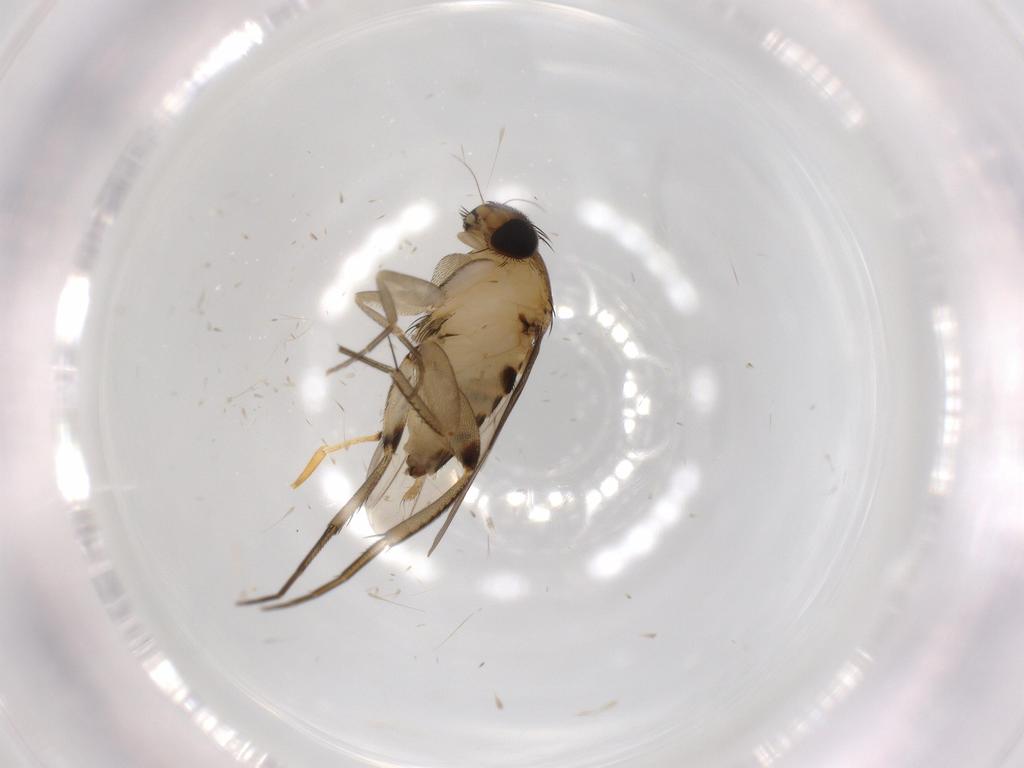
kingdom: Animalia
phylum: Arthropoda
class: Insecta
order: Diptera
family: Phoridae
